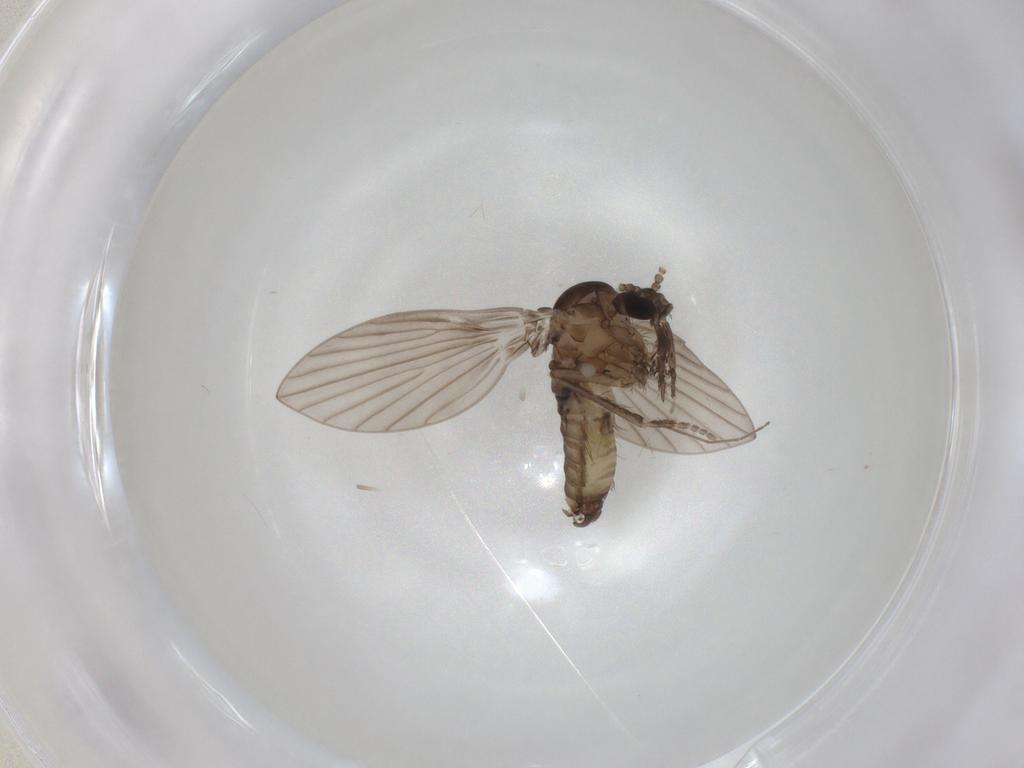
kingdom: Animalia
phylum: Arthropoda
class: Insecta
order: Diptera
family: Psychodidae
